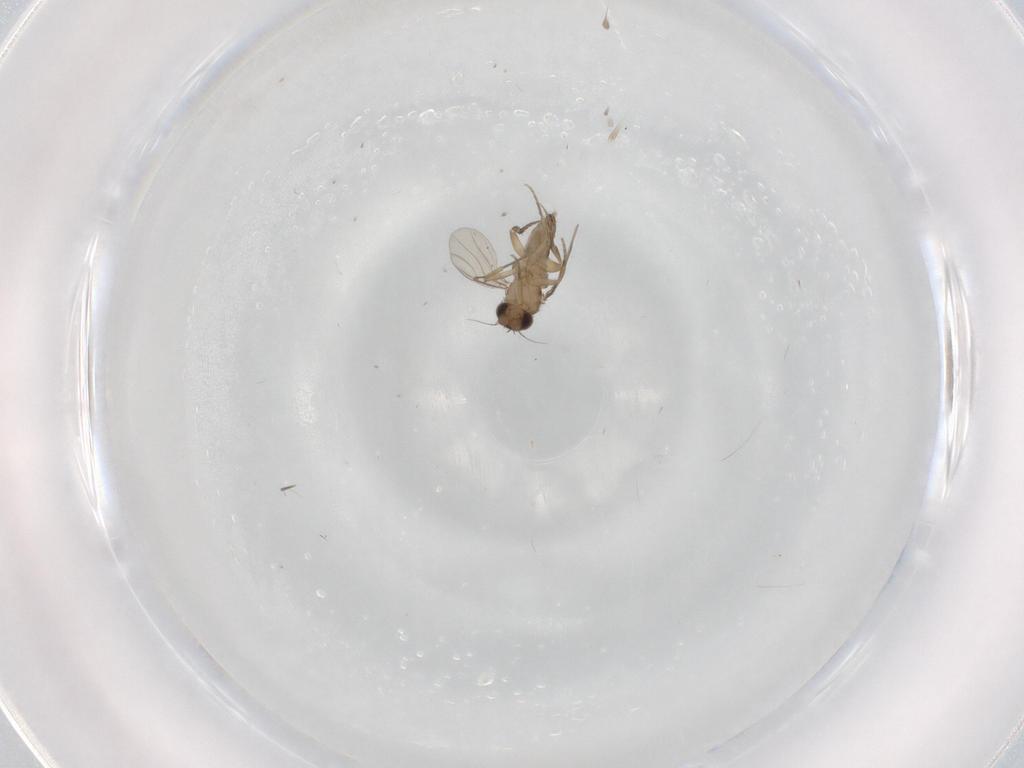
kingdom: Animalia
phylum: Arthropoda
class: Insecta
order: Diptera
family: Phoridae
